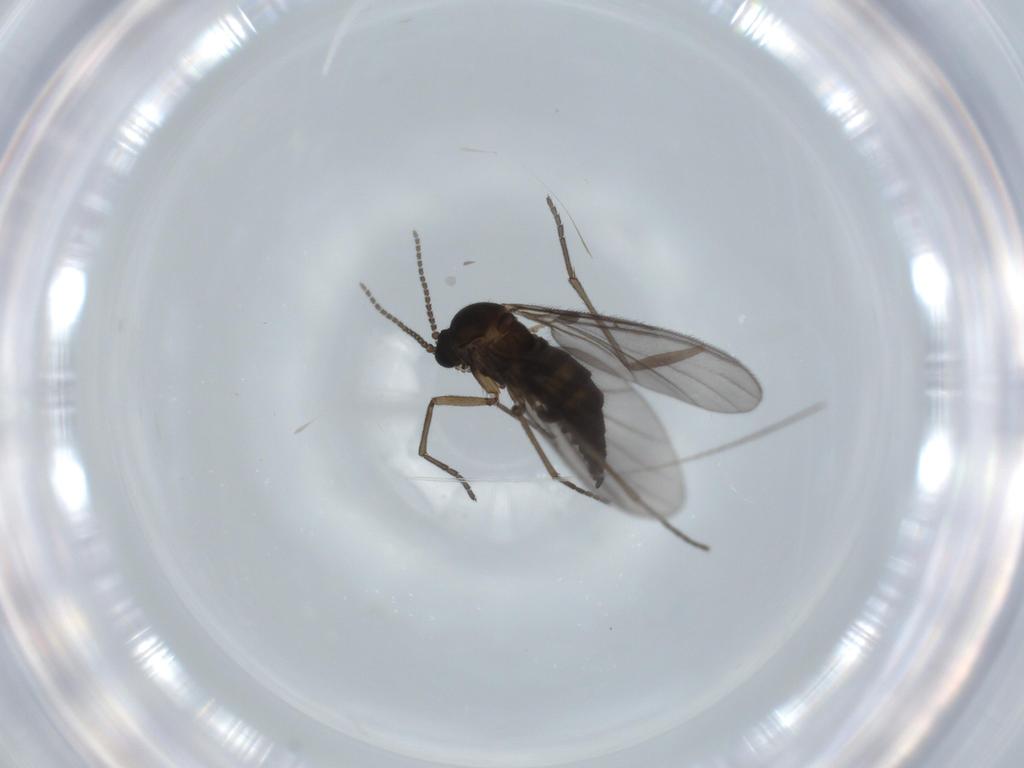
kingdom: Animalia
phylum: Arthropoda
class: Insecta
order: Diptera
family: Sciaridae
